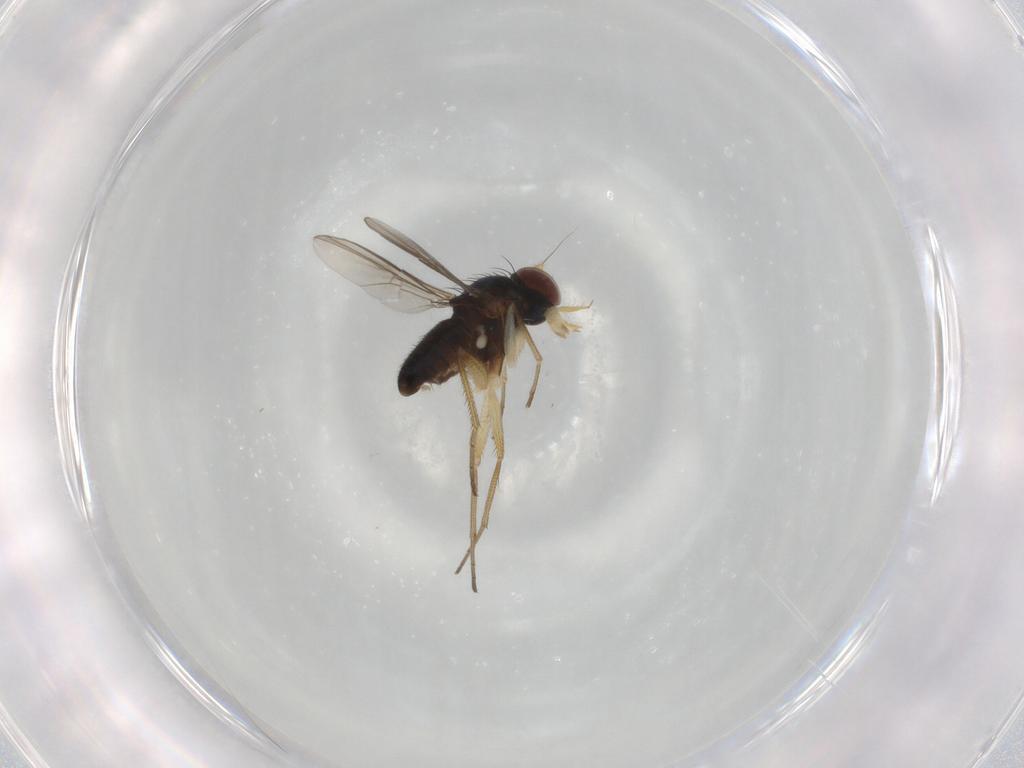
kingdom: Animalia
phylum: Arthropoda
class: Insecta
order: Diptera
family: Dolichopodidae
